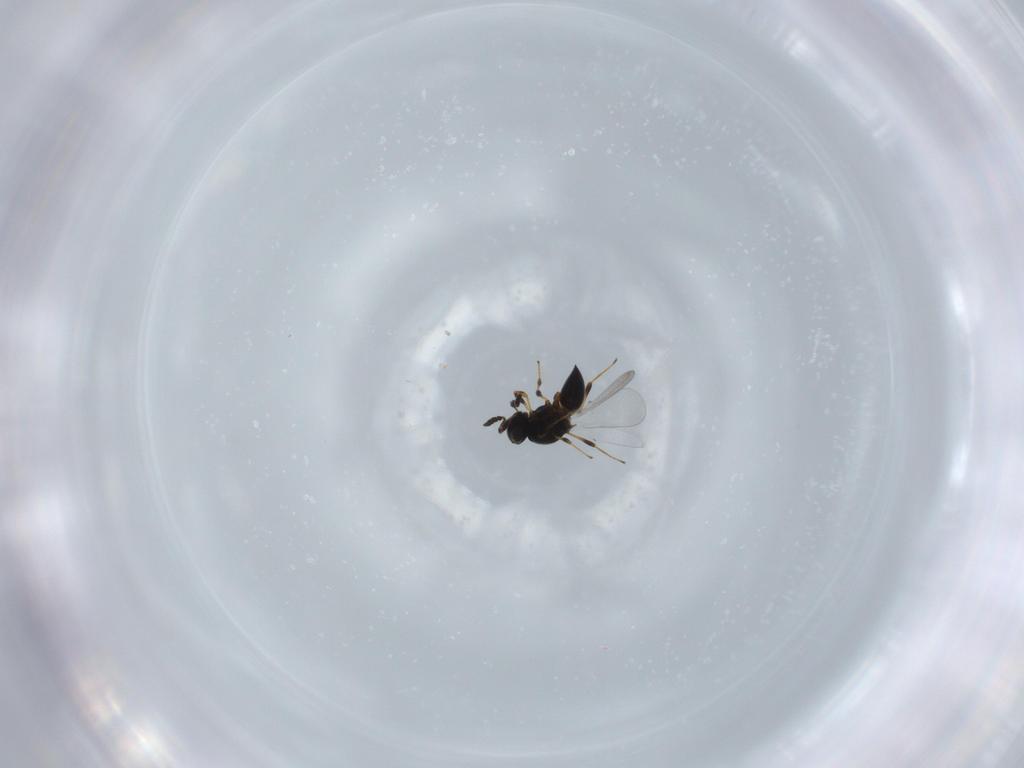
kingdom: Animalia
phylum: Arthropoda
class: Insecta
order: Hymenoptera
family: Platygastridae
